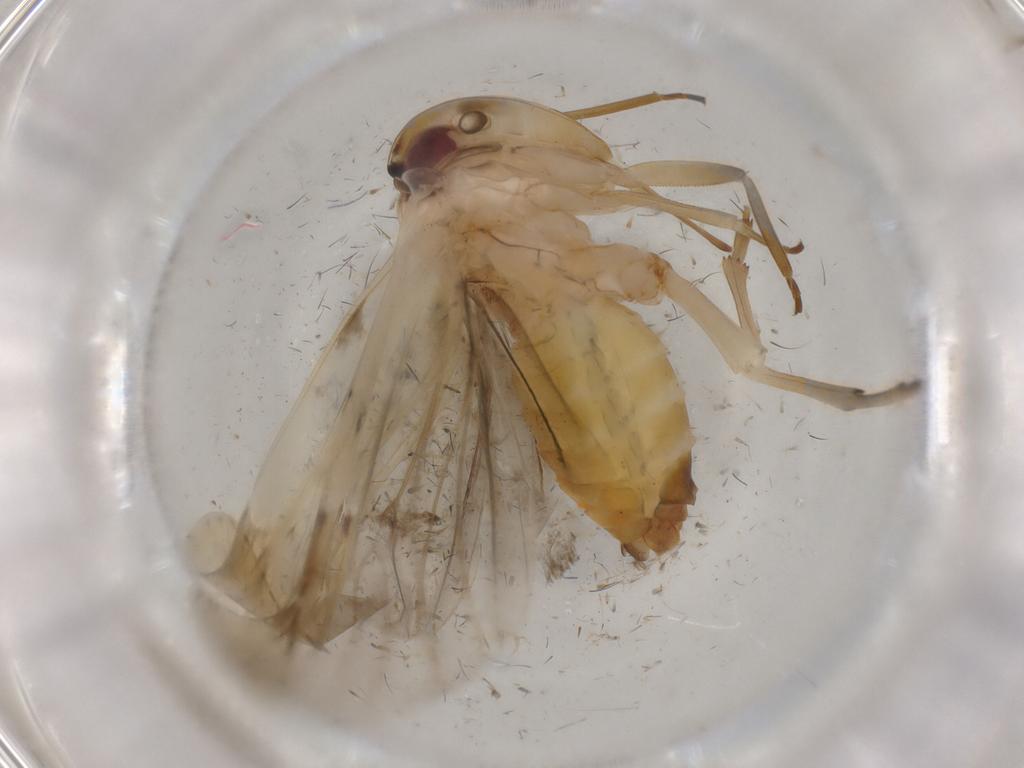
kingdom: Animalia
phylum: Arthropoda
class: Insecta
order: Hemiptera
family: Achilidae
